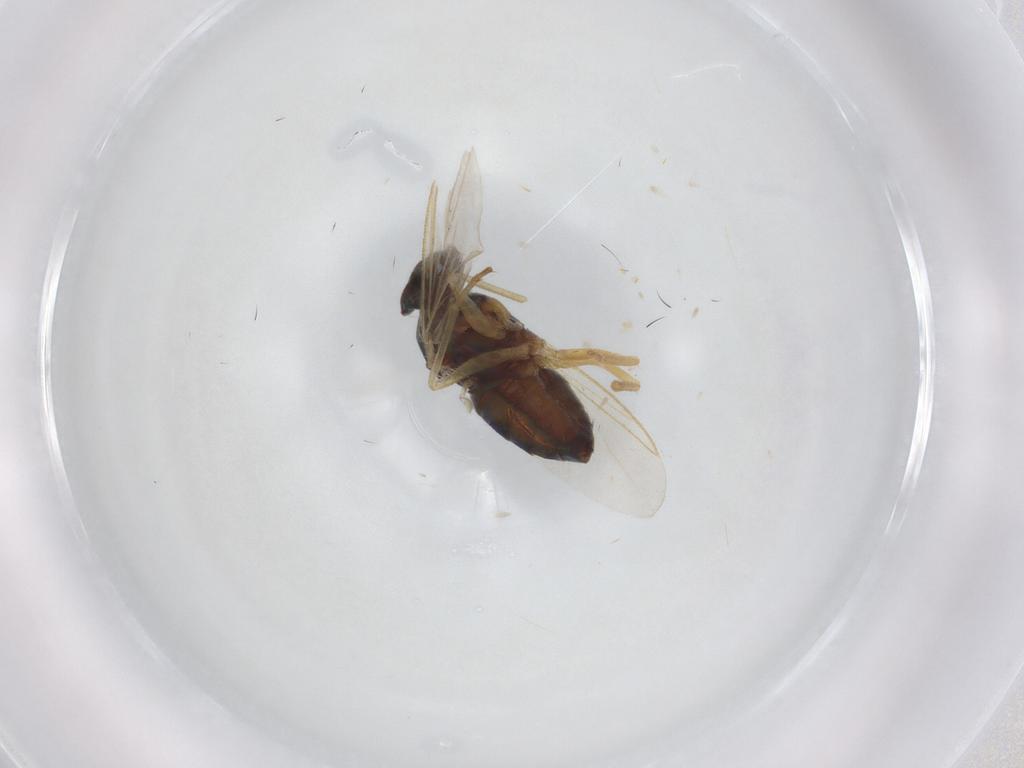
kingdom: Animalia
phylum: Arthropoda
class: Insecta
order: Diptera
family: Dolichopodidae
